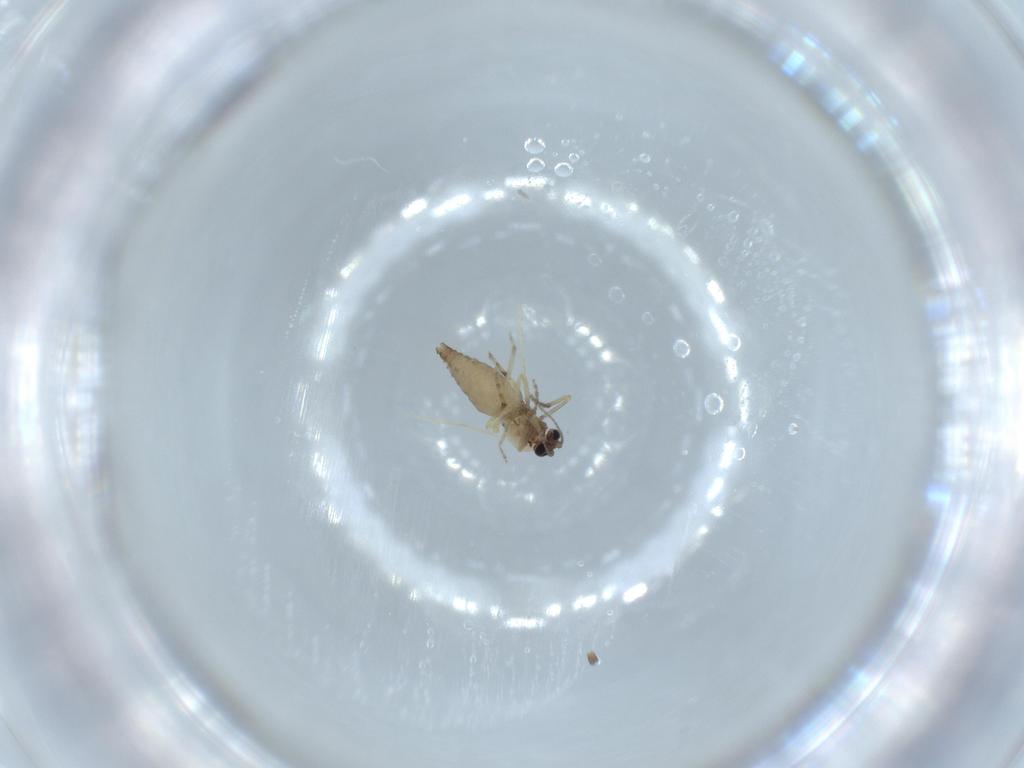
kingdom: Animalia
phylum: Arthropoda
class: Insecta
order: Diptera
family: Ceratopogonidae
